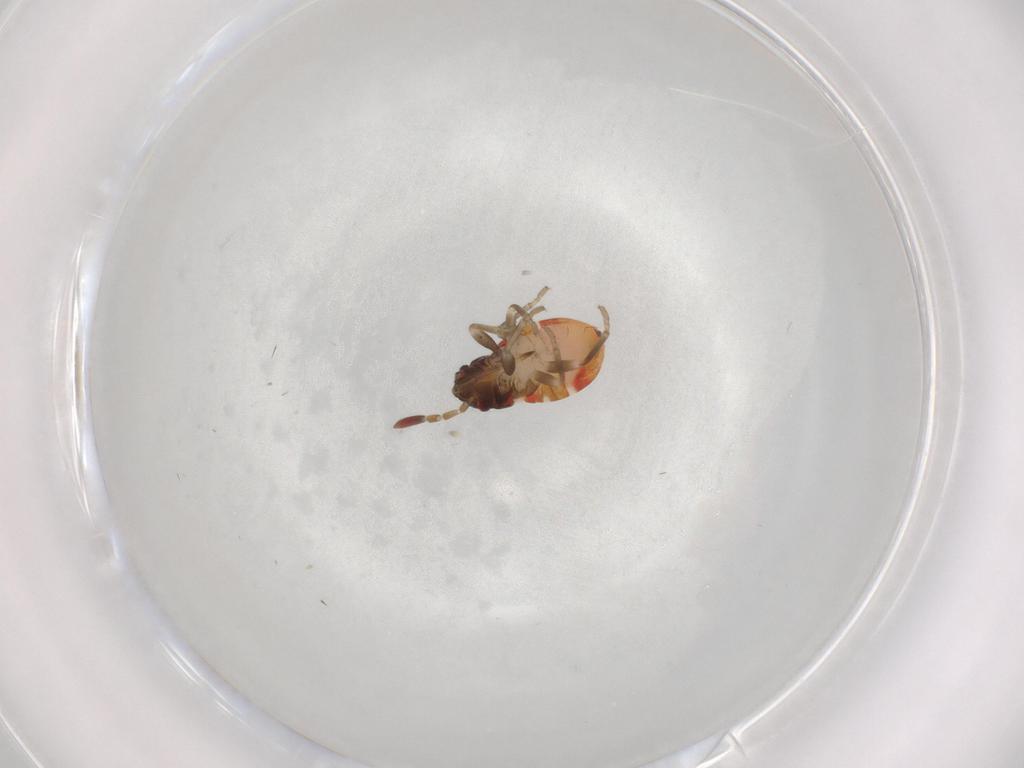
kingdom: Animalia
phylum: Arthropoda
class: Insecta
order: Hemiptera
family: Rhyparochromidae
